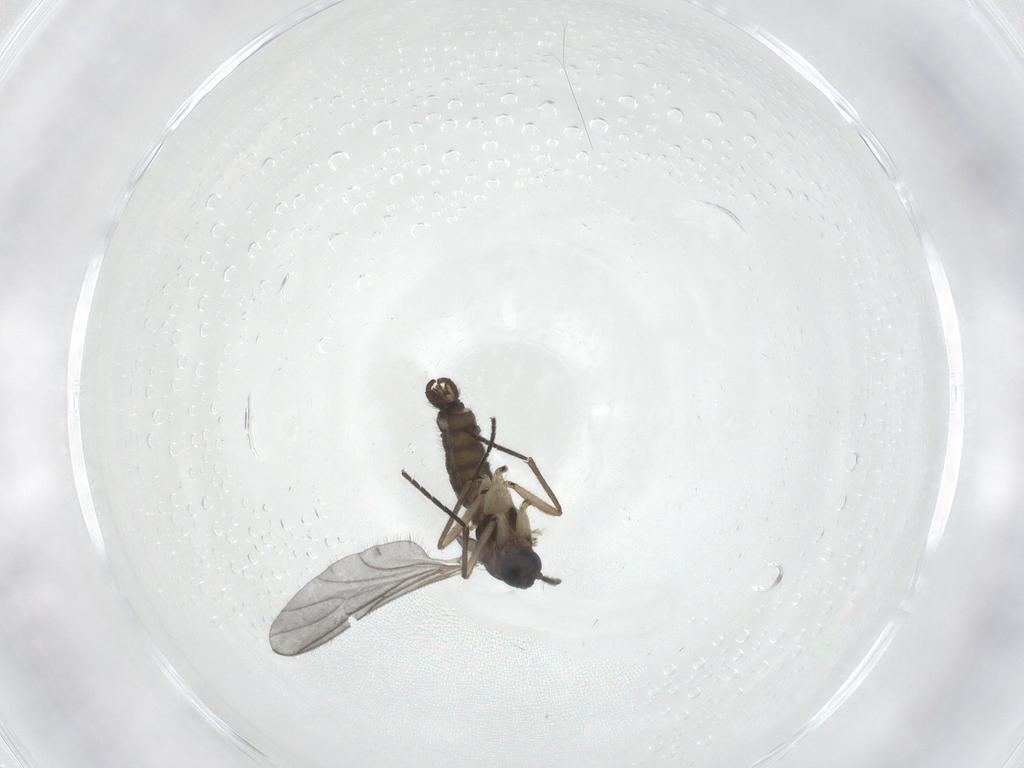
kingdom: Animalia
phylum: Arthropoda
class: Insecta
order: Diptera
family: Sciaridae
